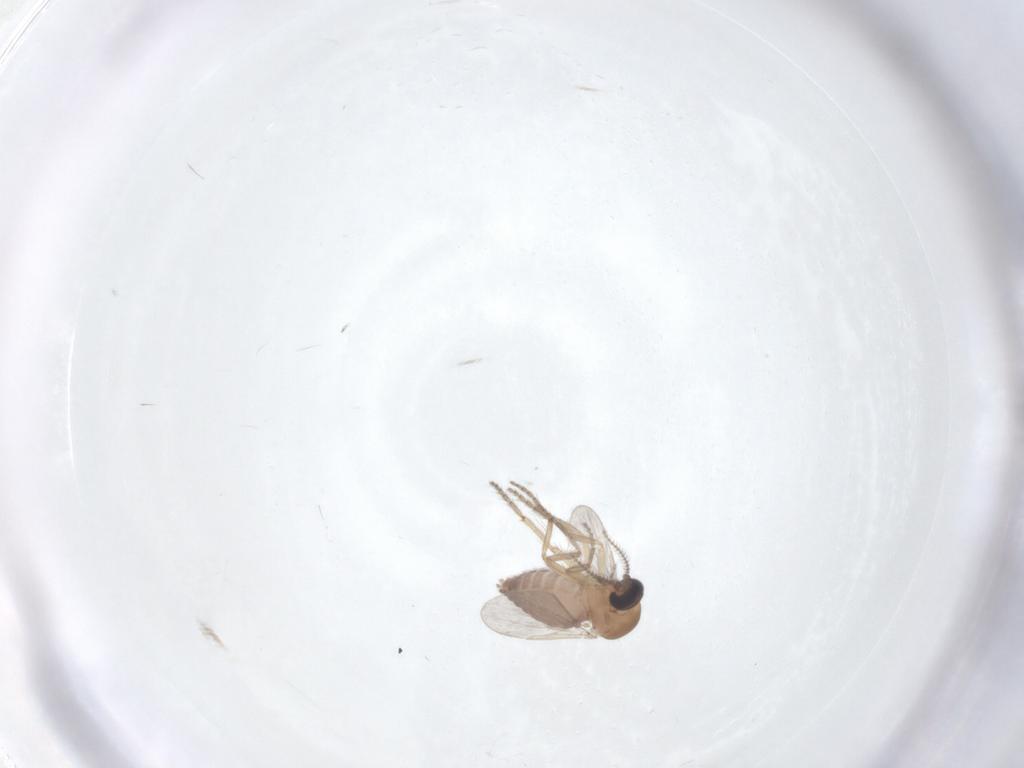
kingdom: Animalia
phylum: Arthropoda
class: Insecta
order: Diptera
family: Ceratopogonidae
